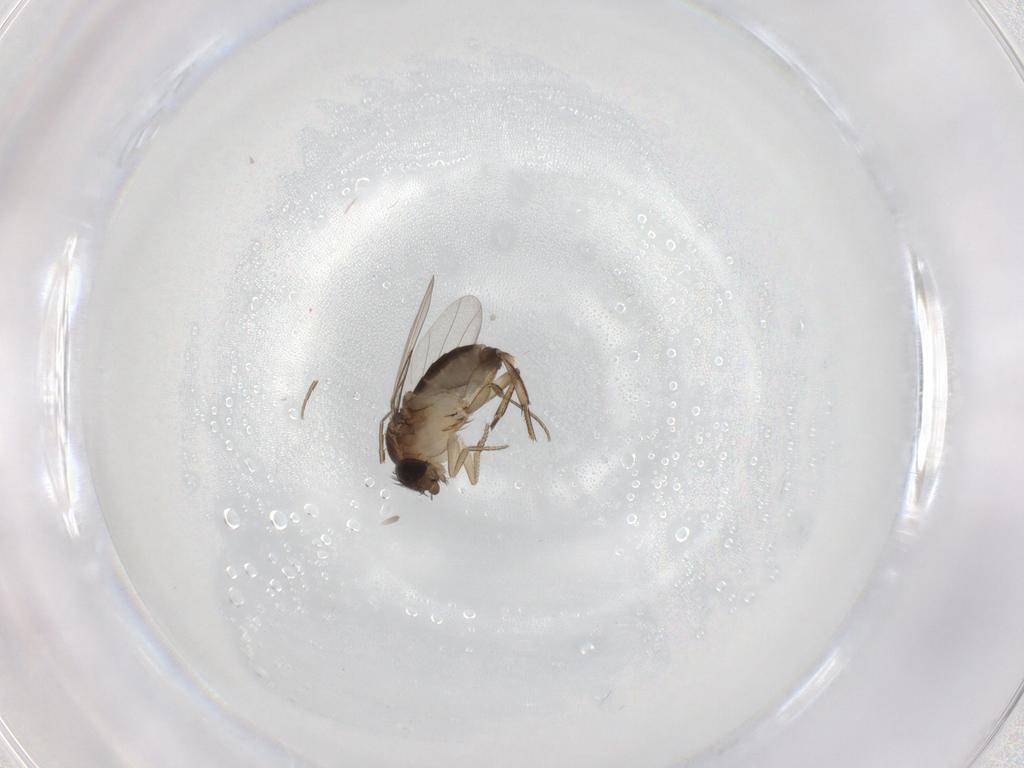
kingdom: Animalia
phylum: Arthropoda
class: Insecta
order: Diptera
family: Phoridae
